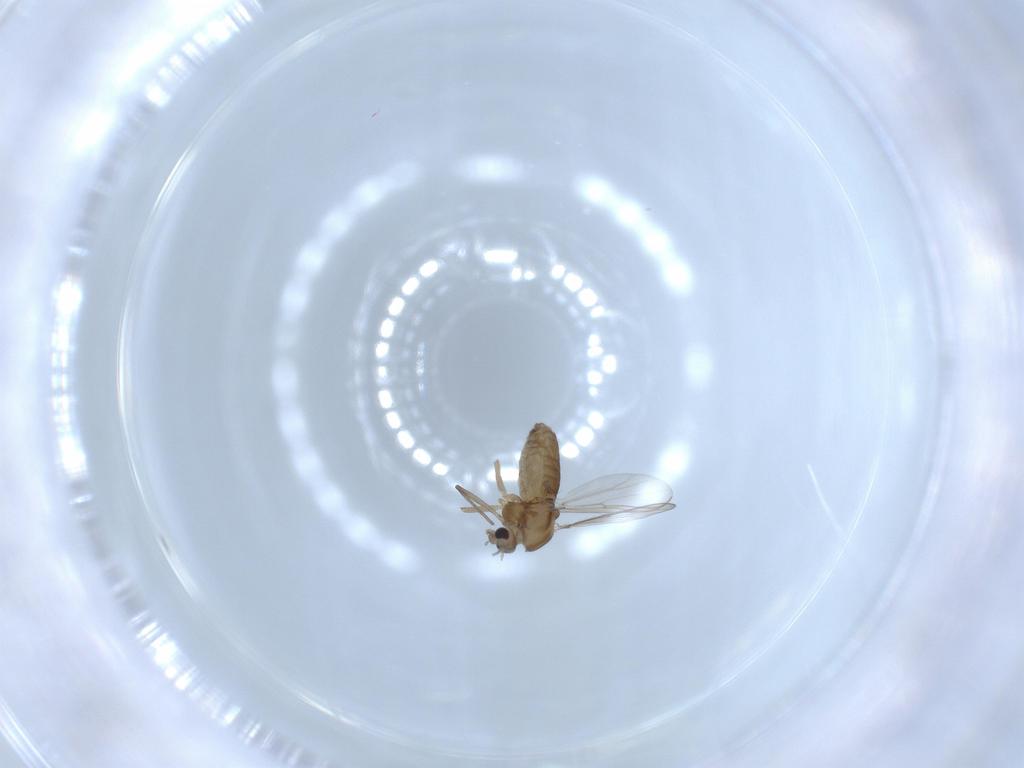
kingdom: Animalia
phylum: Arthropoda
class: Insecta
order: Diptera
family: Chironomidae
